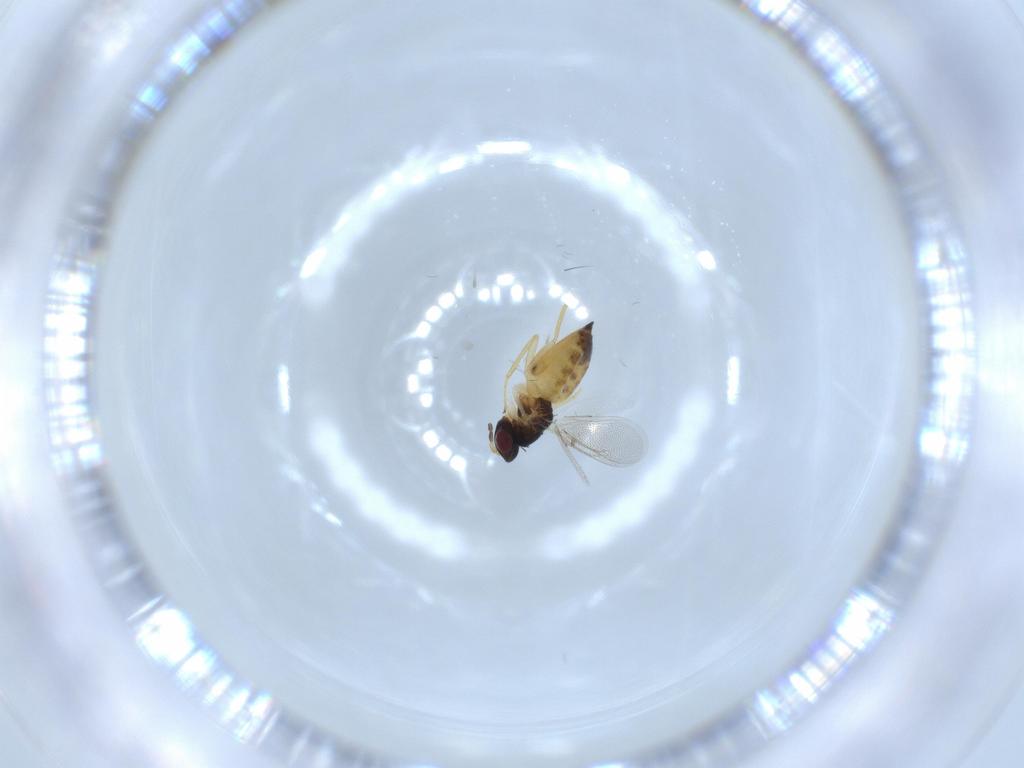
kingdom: Animalia
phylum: Arthropoda
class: Insecta
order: Hymenoptera
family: Eulophidae
